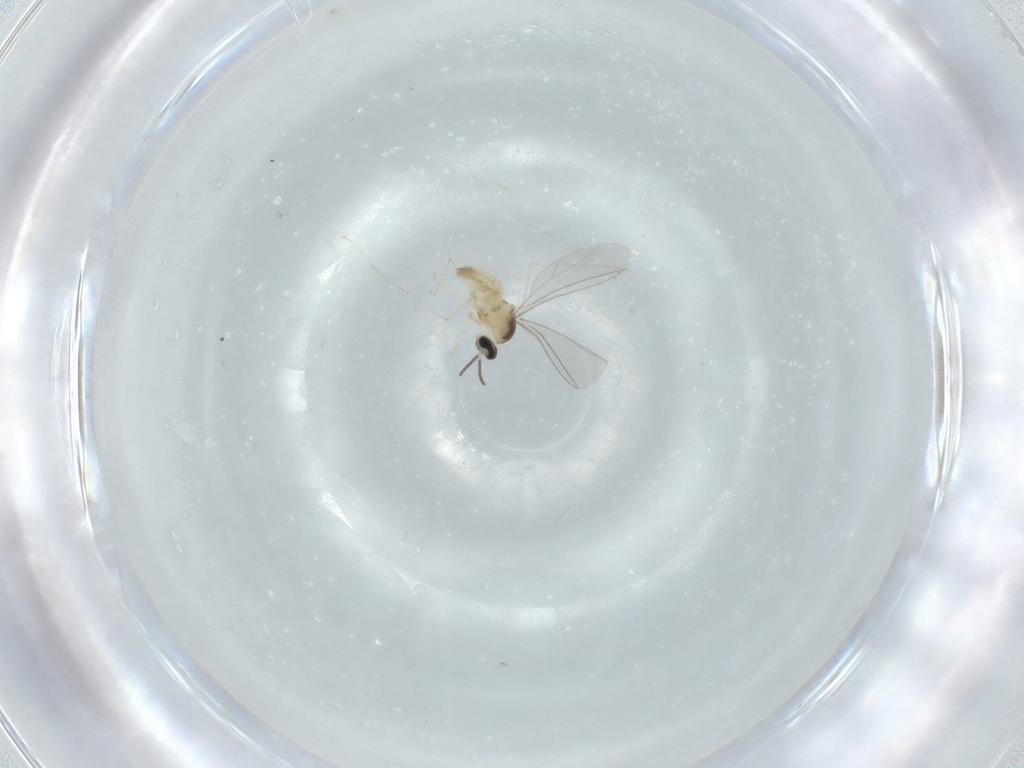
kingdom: Animalia
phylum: Arthropoda
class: Insecta
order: Diptera
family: Cecidomyiidae
